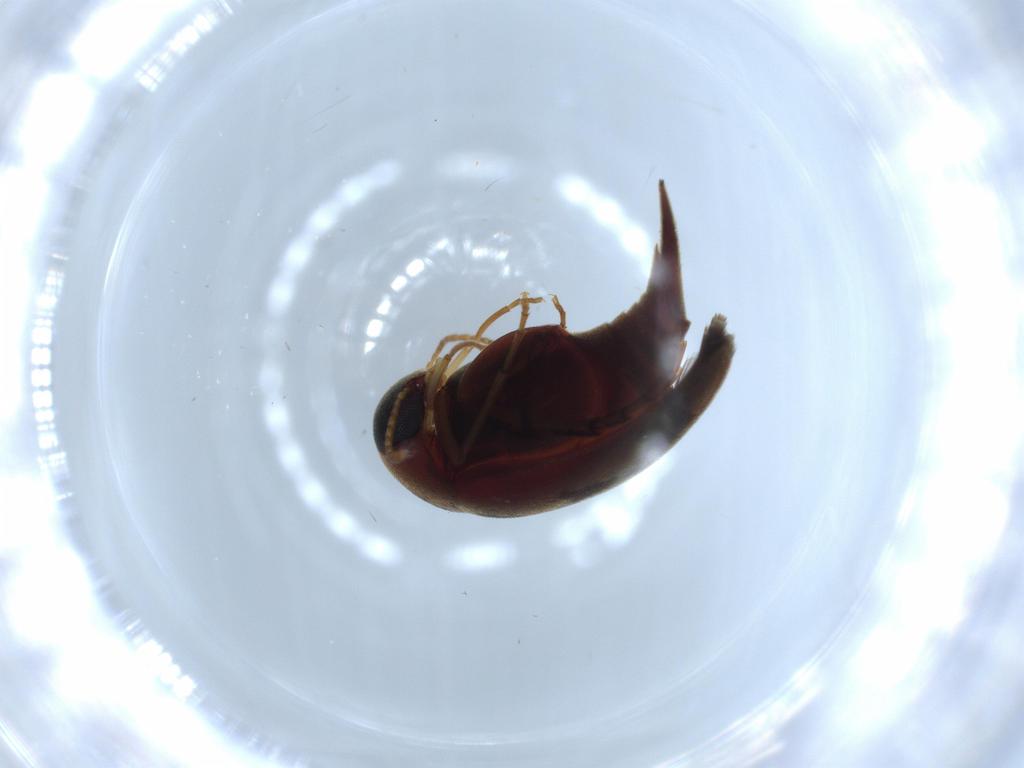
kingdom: Animalia
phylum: Arthropoda
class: Insecta
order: Coleoptera
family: Mordellidae
